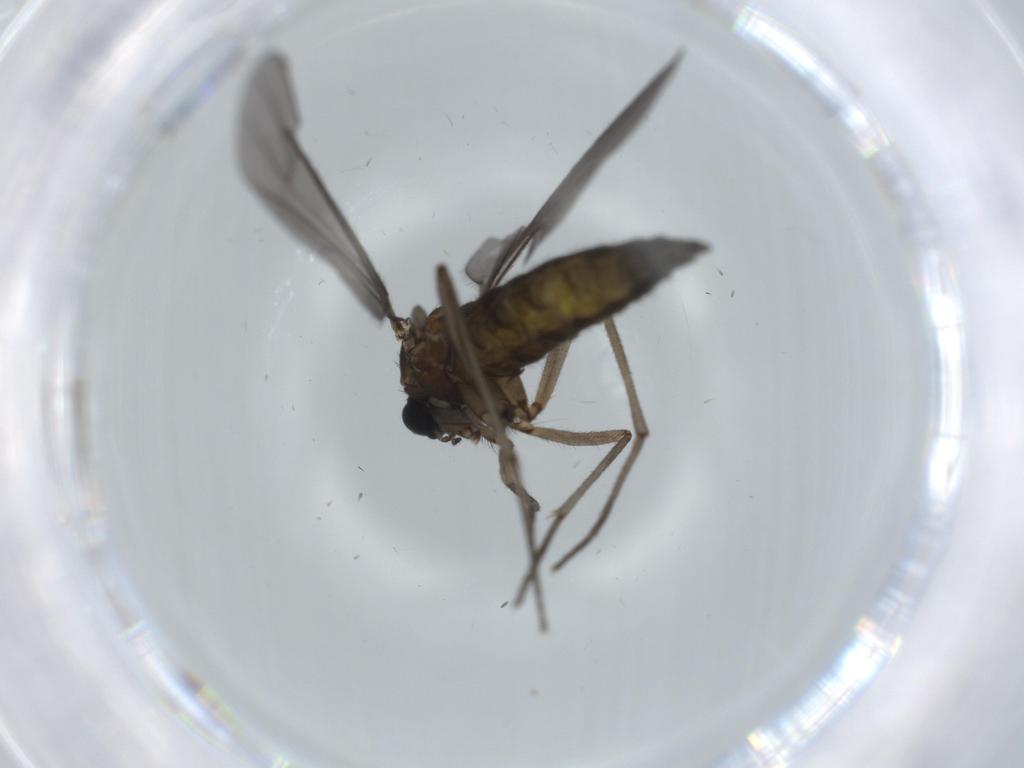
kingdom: Animalia
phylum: Arthropoda
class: Insecta
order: Diptera
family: Sciaridae
